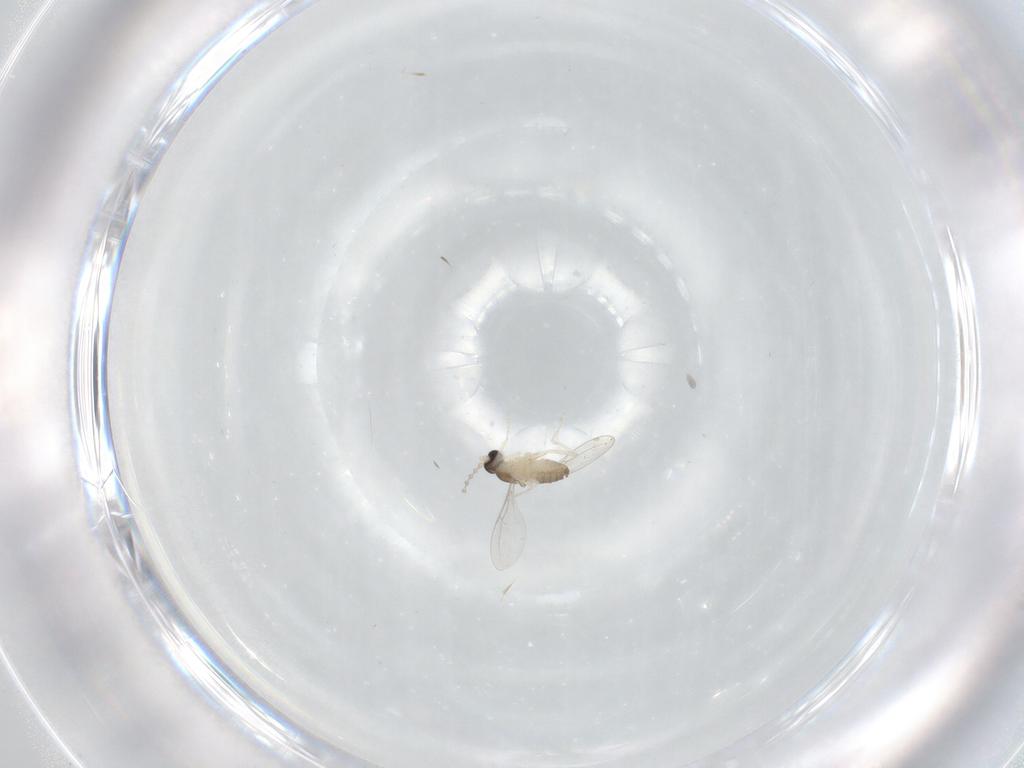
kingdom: Animalia
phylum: Arthropoda
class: Insecta
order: Diptera
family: Cecidomyiidae
